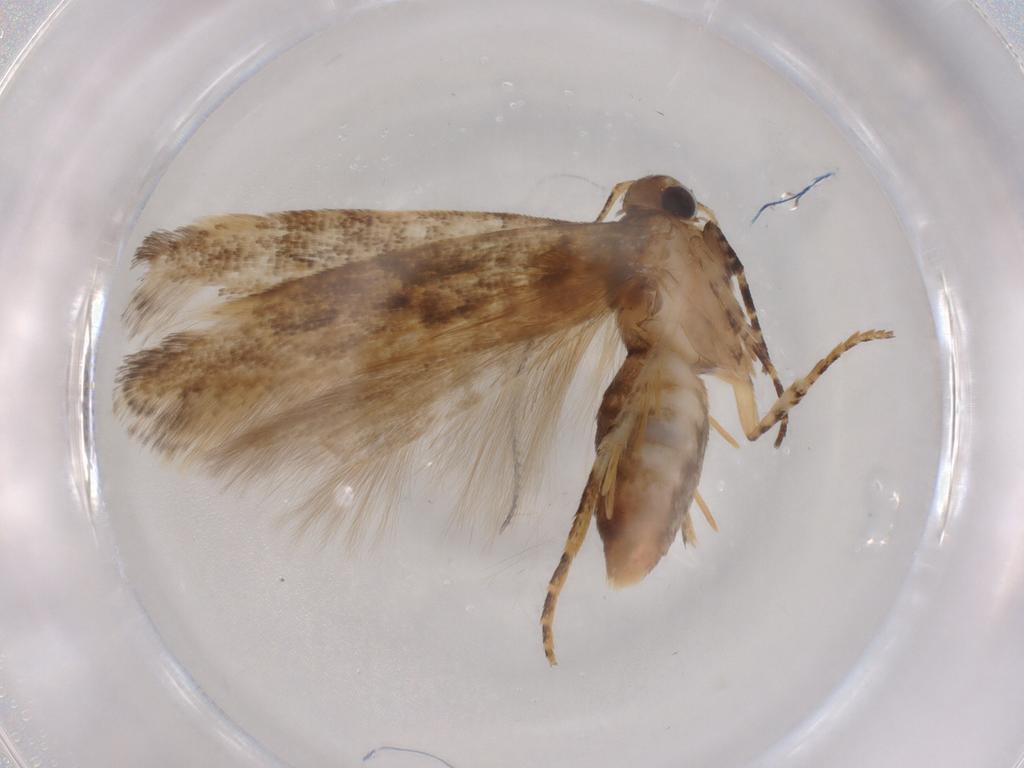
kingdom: Animalia
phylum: Arthropoda
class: Insecta
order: Lepidoptera
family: Gelechiidae
